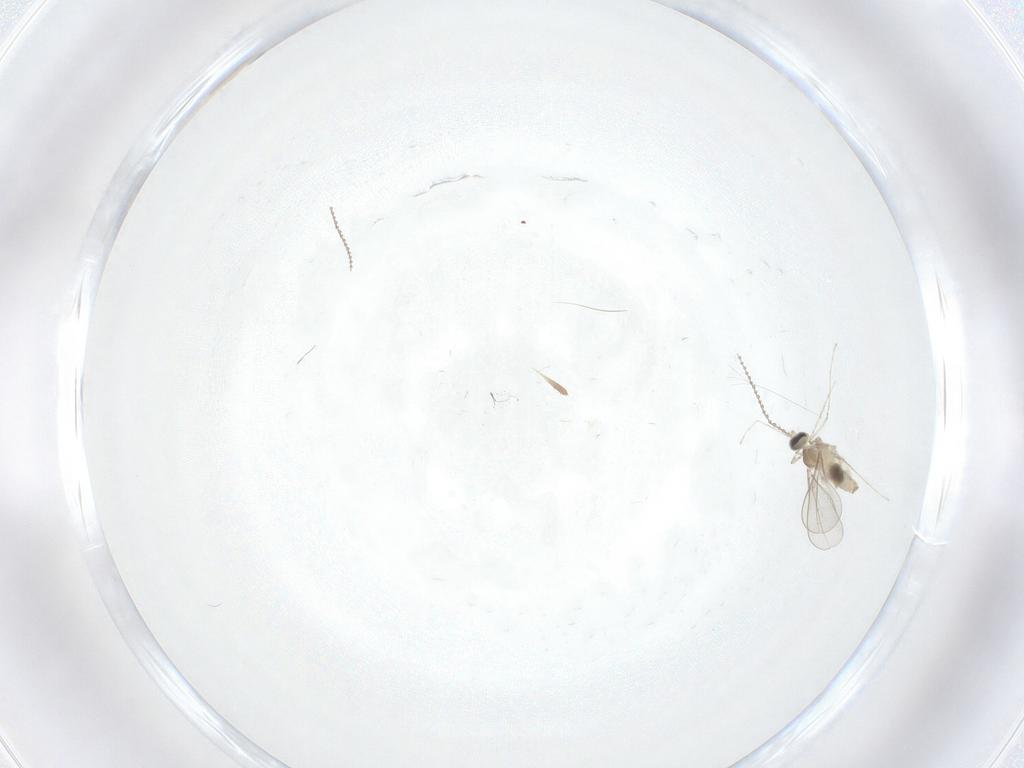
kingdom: Animalia
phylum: Arthropoda
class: Insecta
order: Diptera
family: Cecidomyiidae
